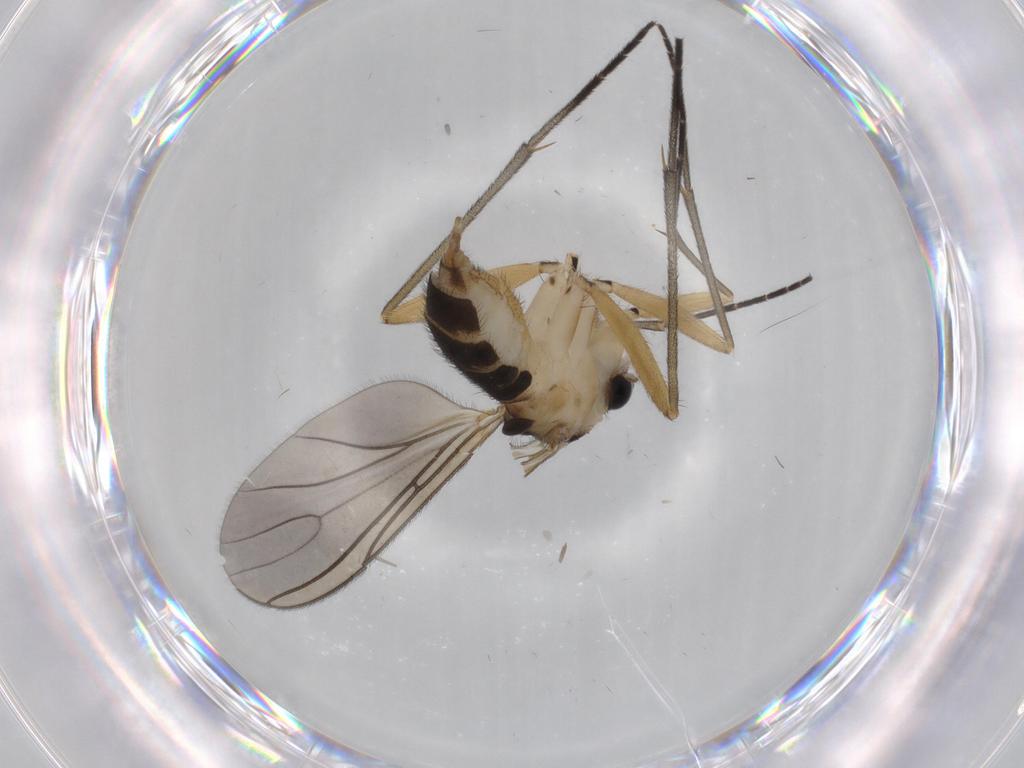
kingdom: Animalia
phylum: Arthropoda
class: Insecta
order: Diptera
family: Sciaridae
